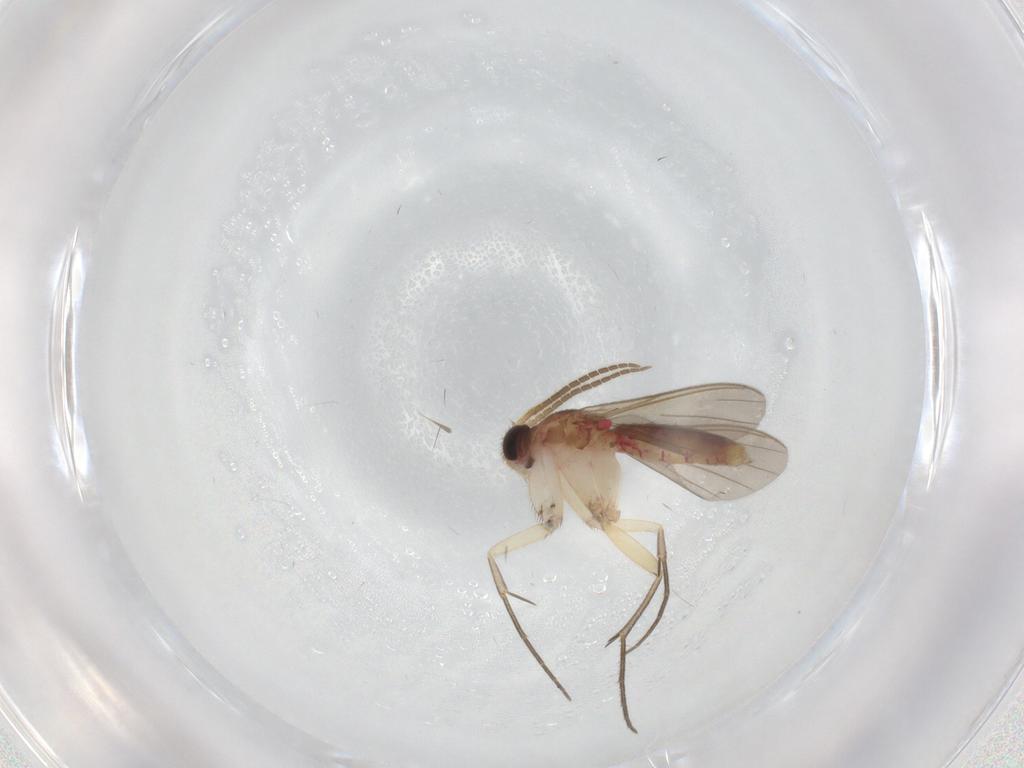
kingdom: Animalia
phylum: Arthropoda
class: Insecta
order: Diptera
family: Mycetophilidae
